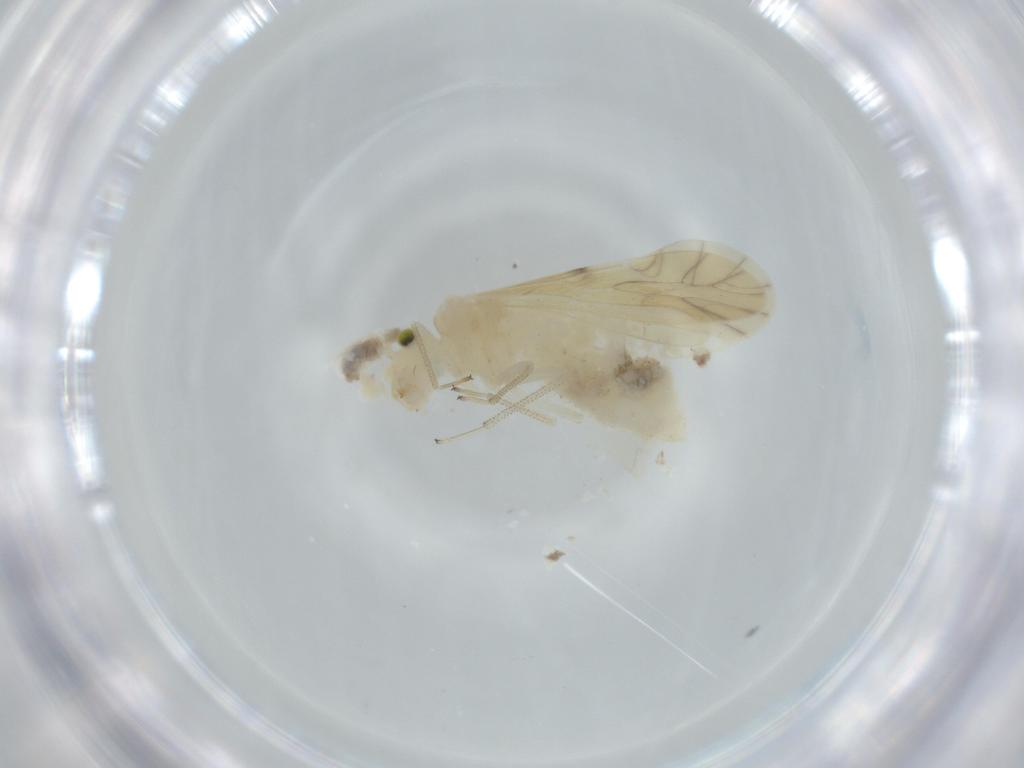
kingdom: Animalia
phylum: Arthropoda
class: Insecta
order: Psocodea
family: Caeciliusidae
